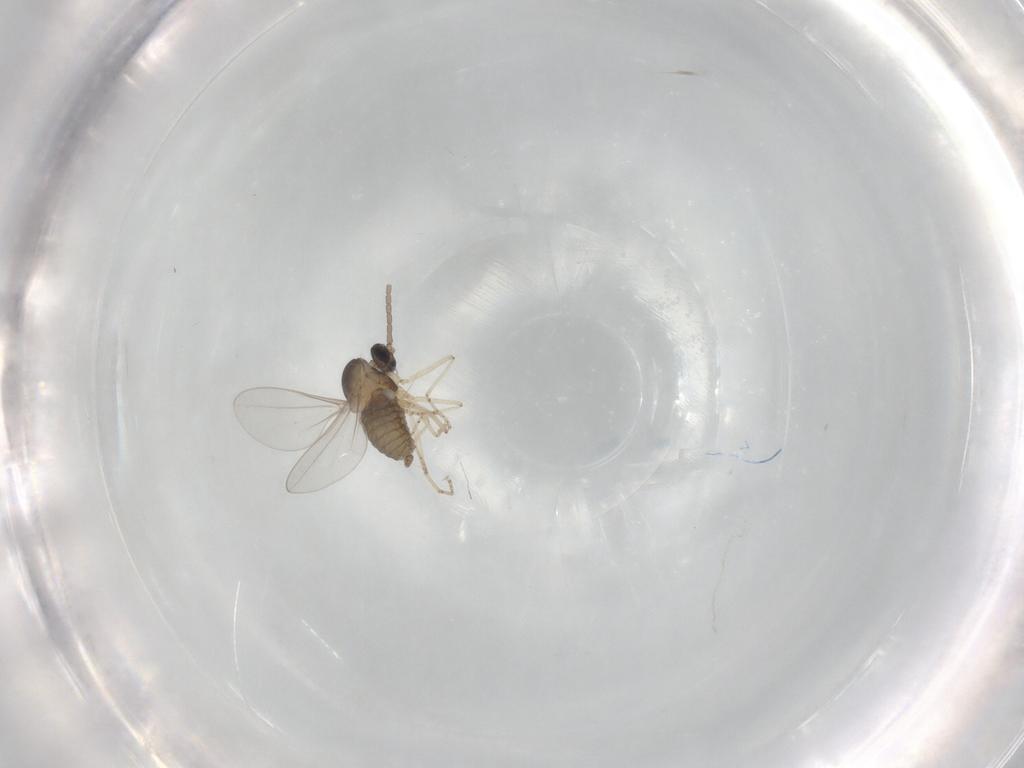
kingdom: Animalia
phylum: Arthropoda
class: Insecta
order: Diptera
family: Cecidomyiidae
